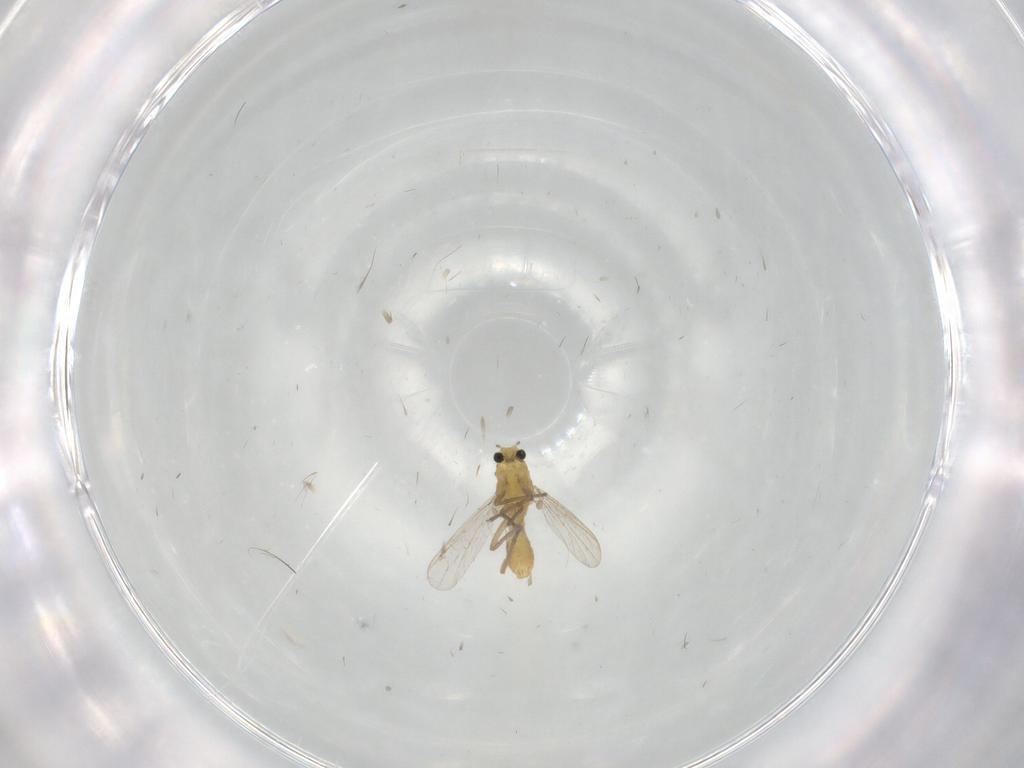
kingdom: Animalia
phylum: Arthropoda
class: Insecta
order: Diptera
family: Chironomidae
